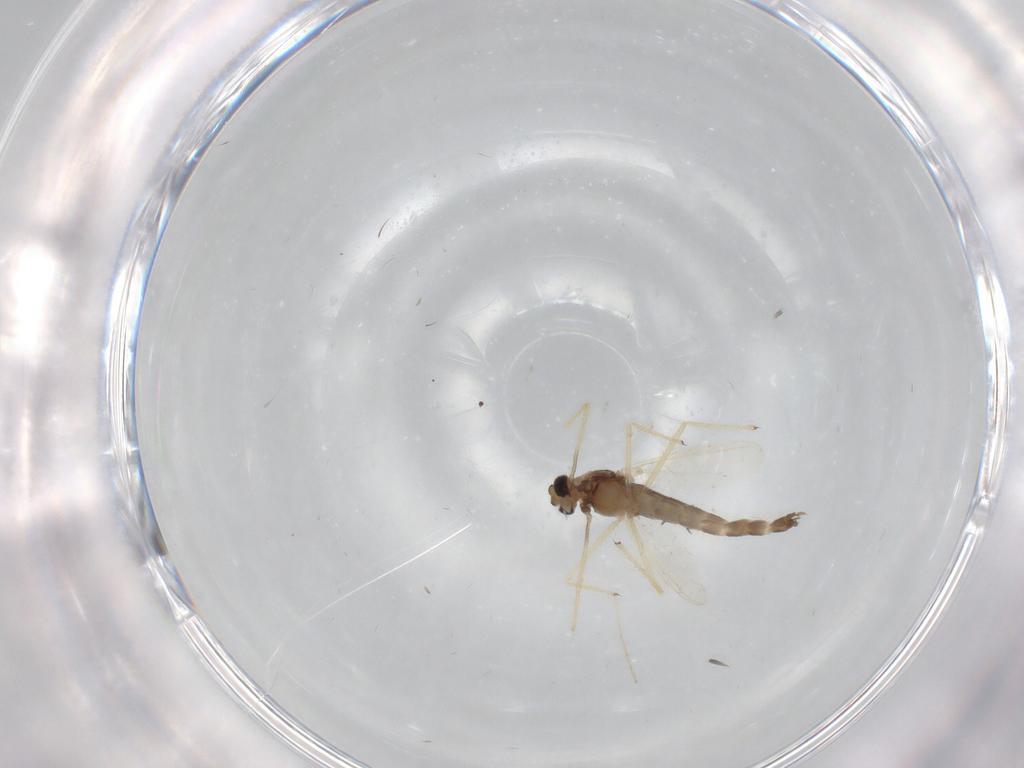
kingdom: Animalia
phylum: Arthropoda
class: Insecta
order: Diptera
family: Chironomidae
